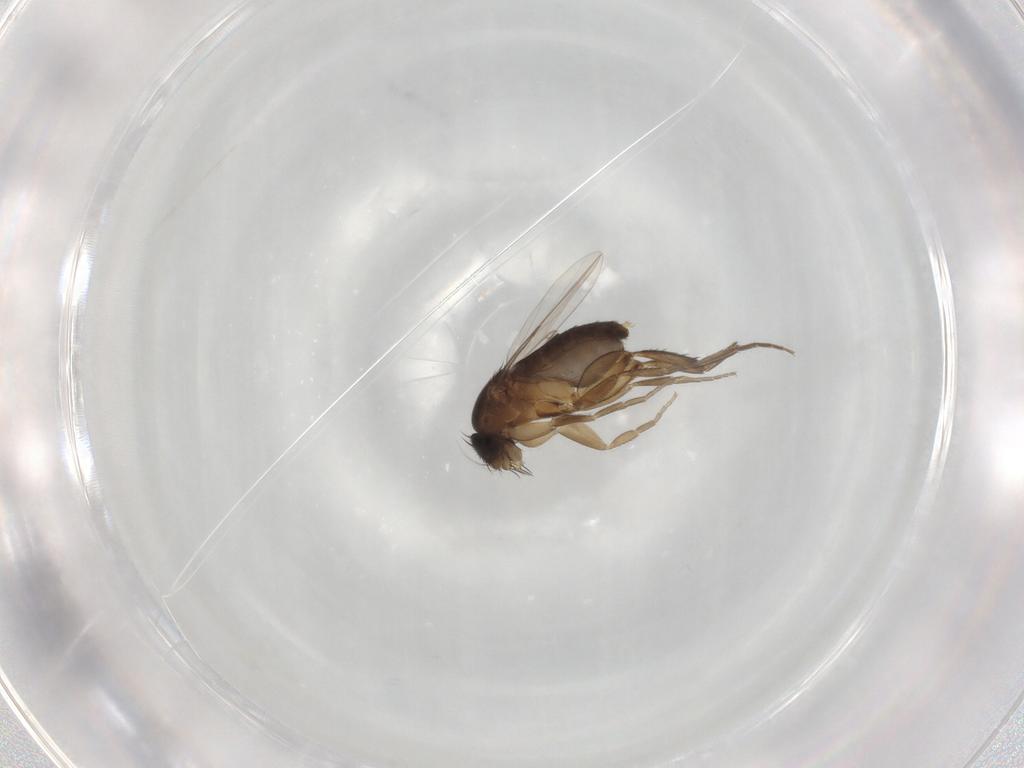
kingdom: Animalia
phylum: Arthropoda
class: Insecta
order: Diptera
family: Phoridae
